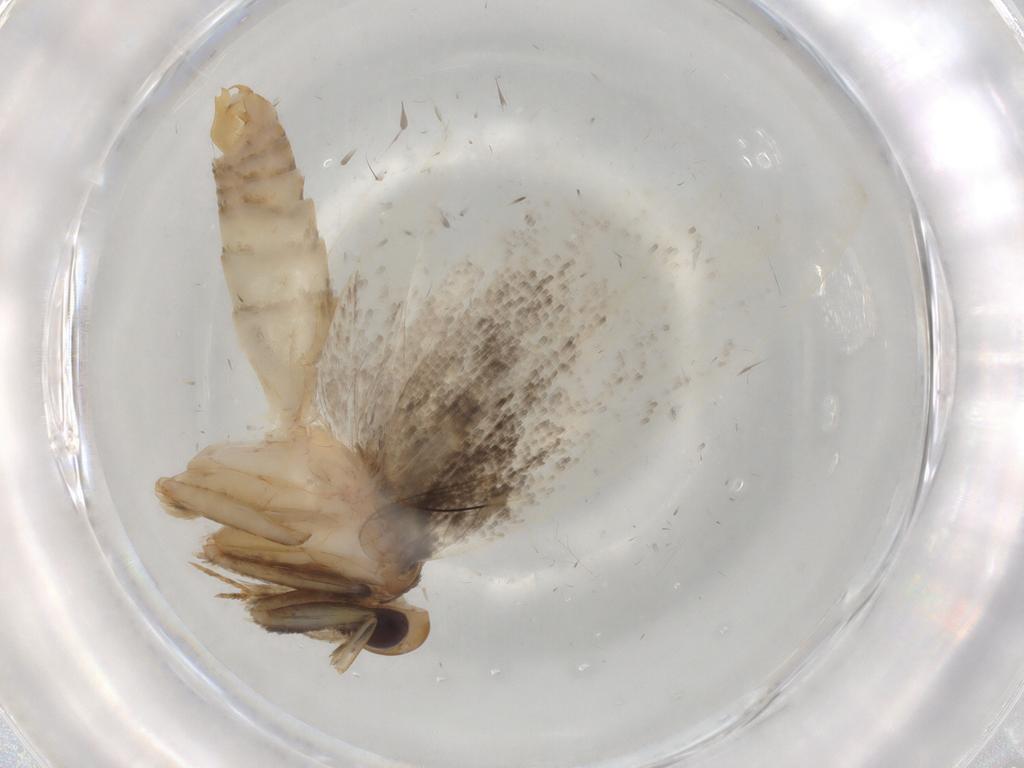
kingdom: Animalia
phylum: Arthropoda
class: Insecta
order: Lepidoptera
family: Oecophoridae
